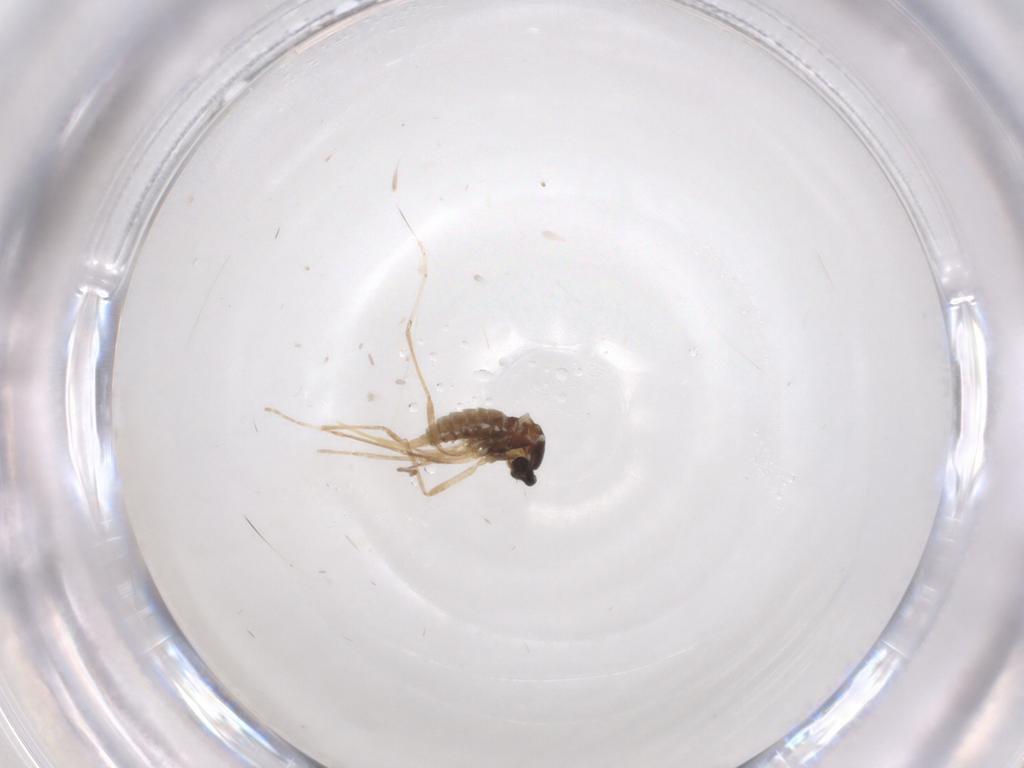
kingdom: Animalia
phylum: Arthropoda
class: Insecta
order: Diptera
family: Cecidomyiidae
